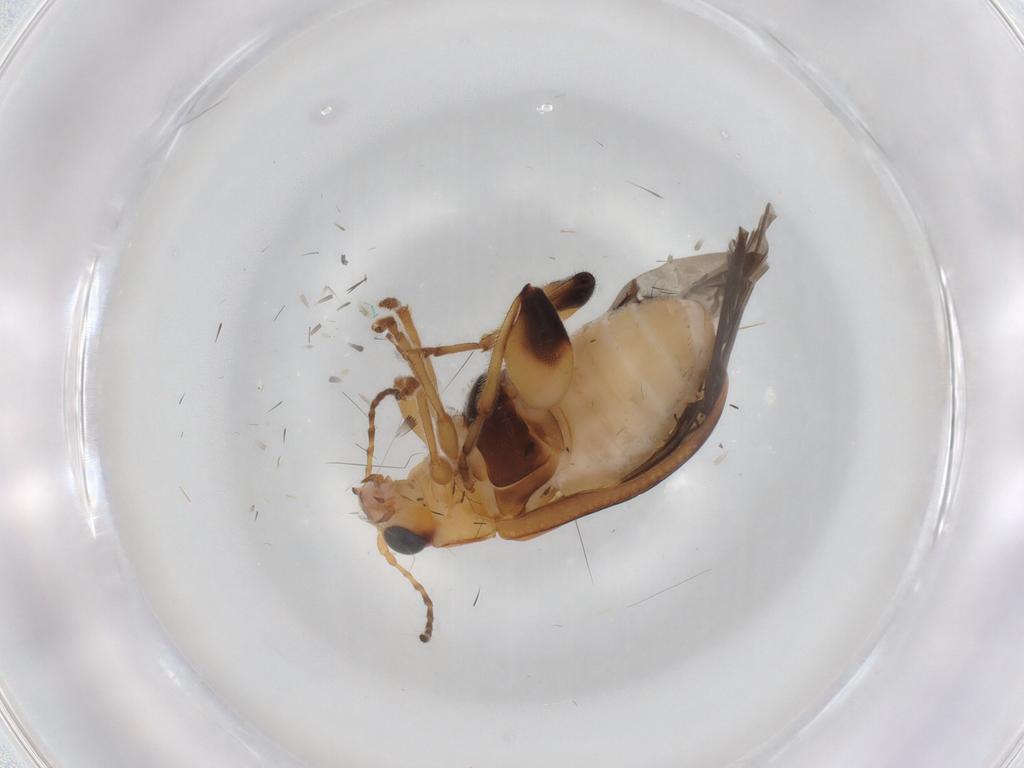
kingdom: Animalia
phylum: Arthropoda
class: Insecta
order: Coleoptera
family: Chrysomelidae
